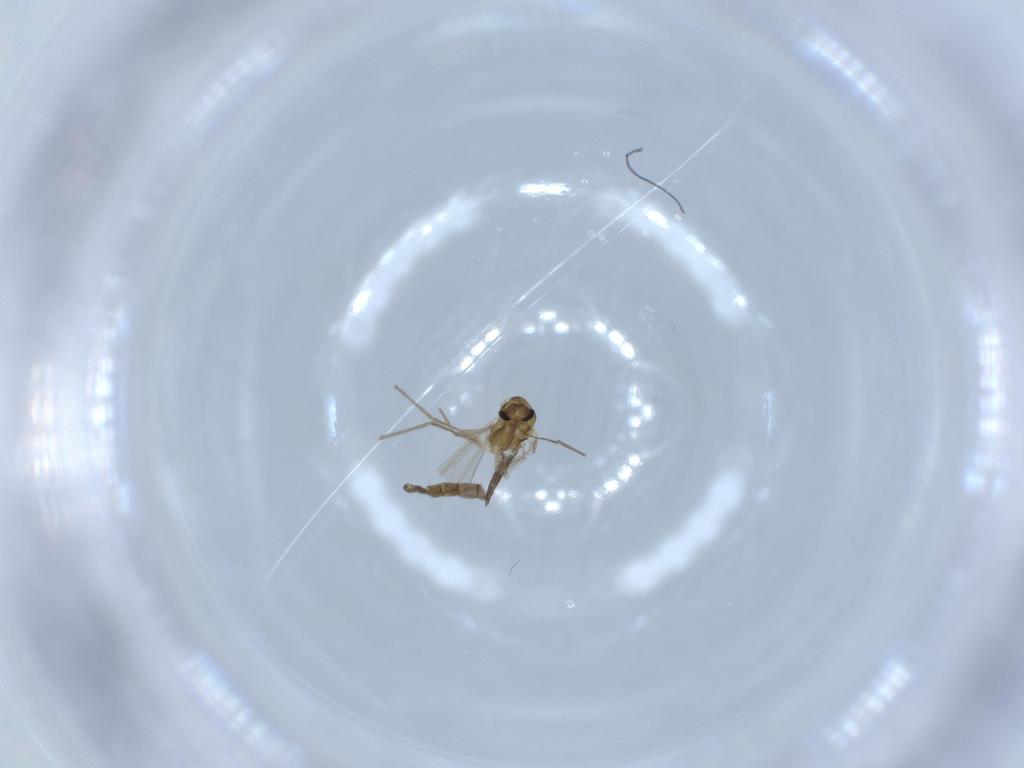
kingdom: Animalia
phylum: Arthropoda
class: Insecta
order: Diptera
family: Chironomidae
